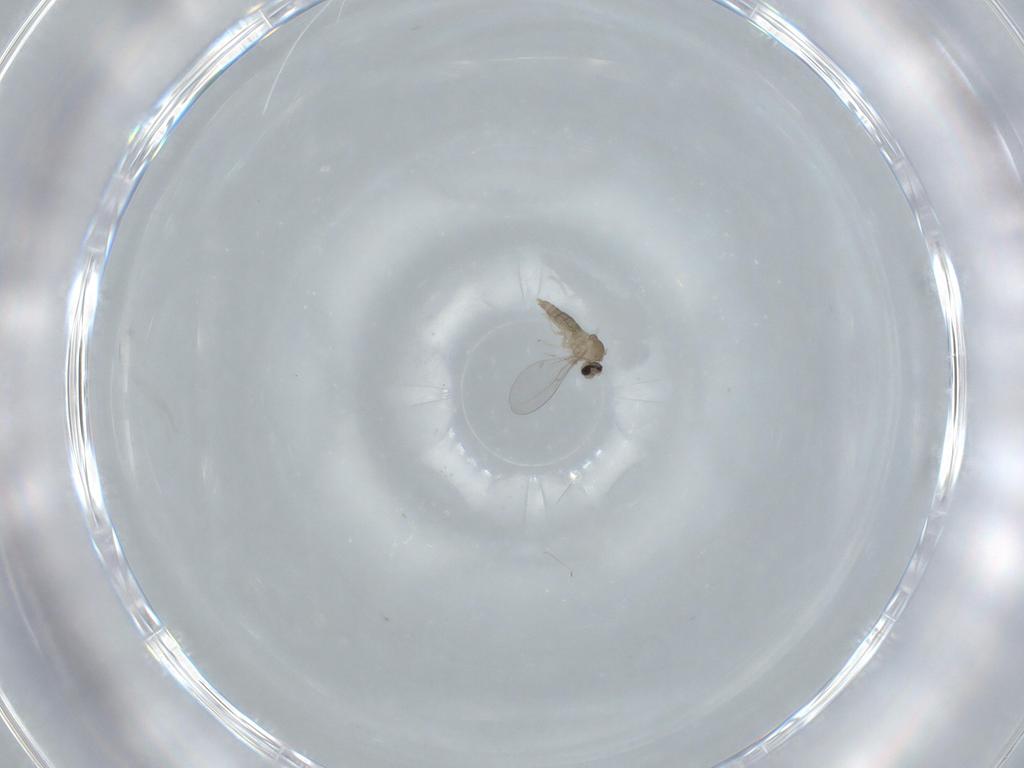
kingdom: Animalia
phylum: Arthropoda
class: Insecta
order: Diptera
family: Cecidomyiidae
